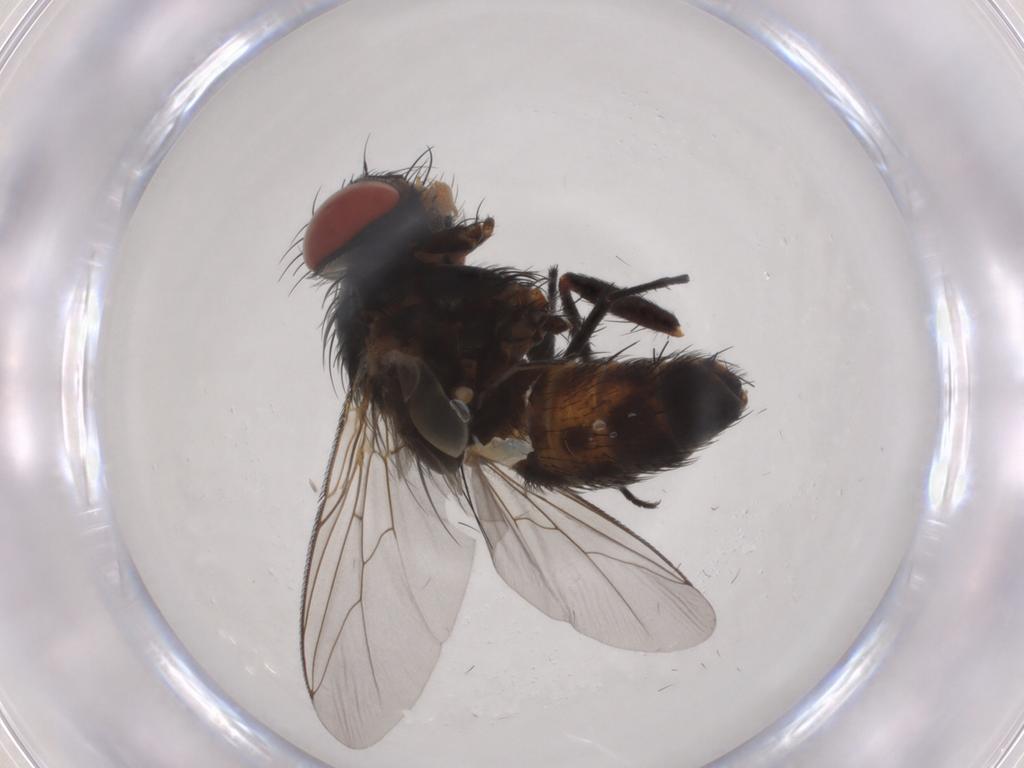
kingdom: Animalia
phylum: Arthropoda
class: Insecta
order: Diptera
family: Sarcophagidae
